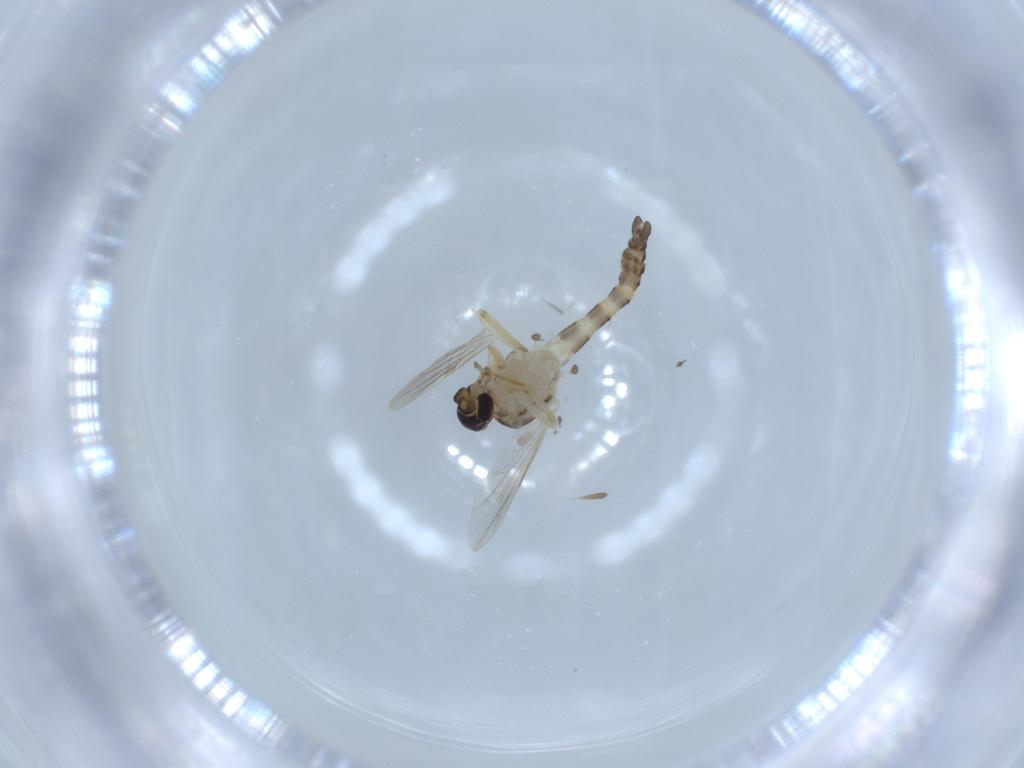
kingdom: Animalia
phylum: Arthropoda
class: Insecta
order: Diptera
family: Ceratopogonidae
